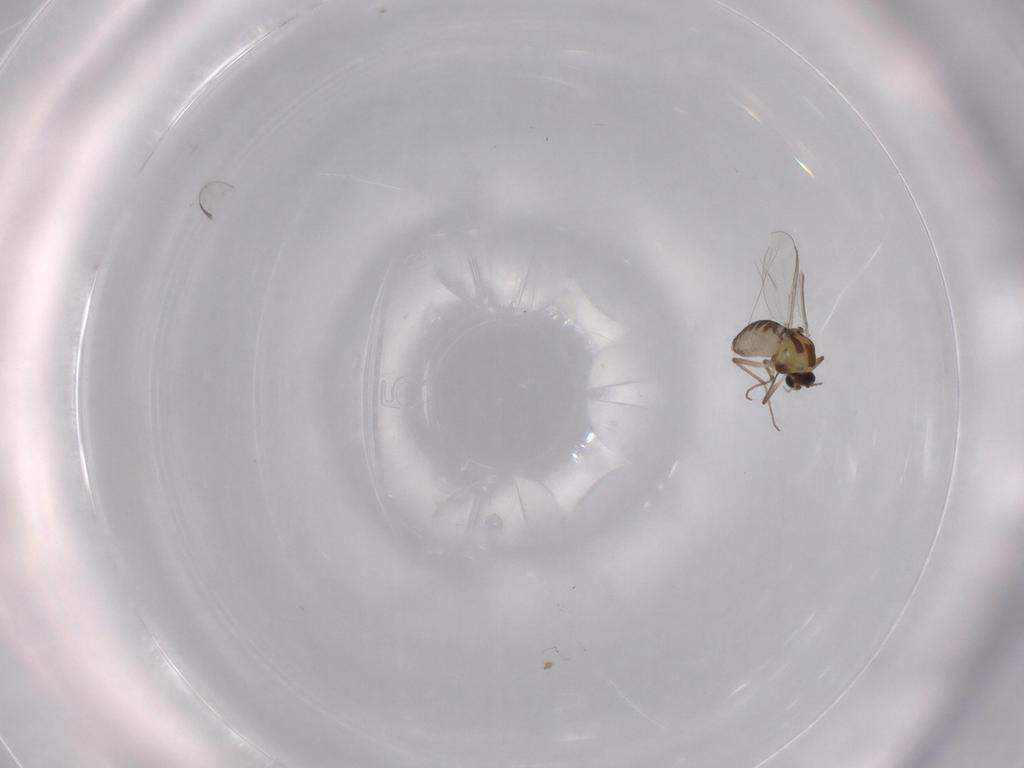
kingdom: Animalia
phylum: Arthropoda
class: Insecta
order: Diptera
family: Chironomidae
